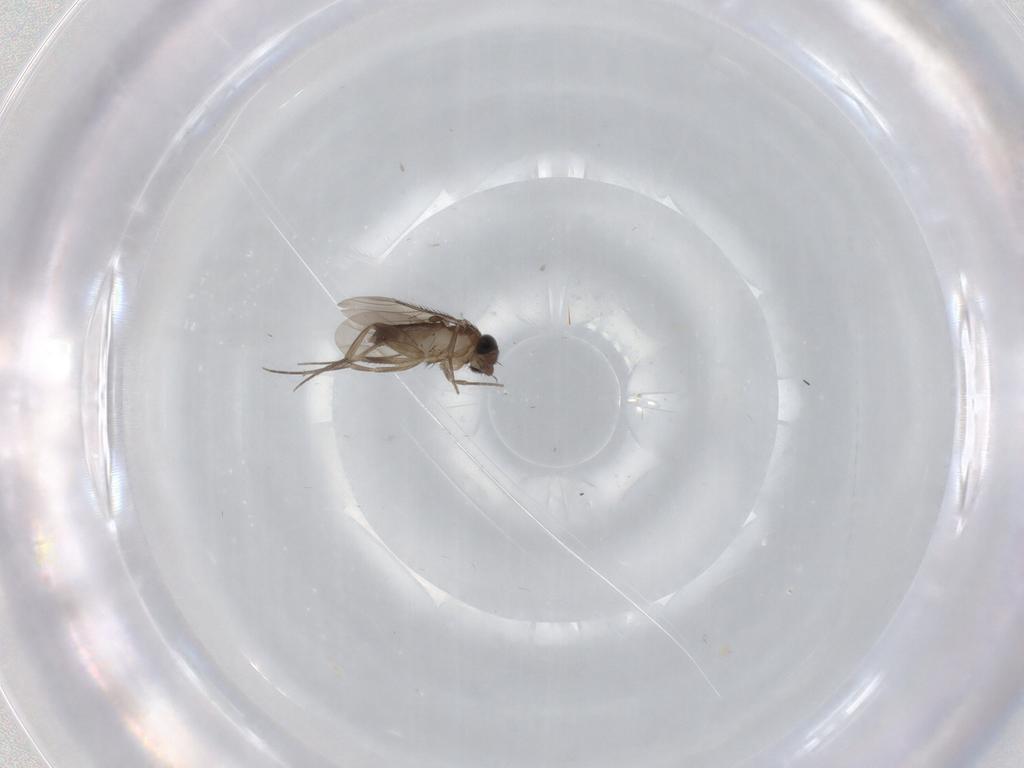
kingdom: Animalia
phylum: Arthropoda
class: Insecta
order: Diptera
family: Phoridae
